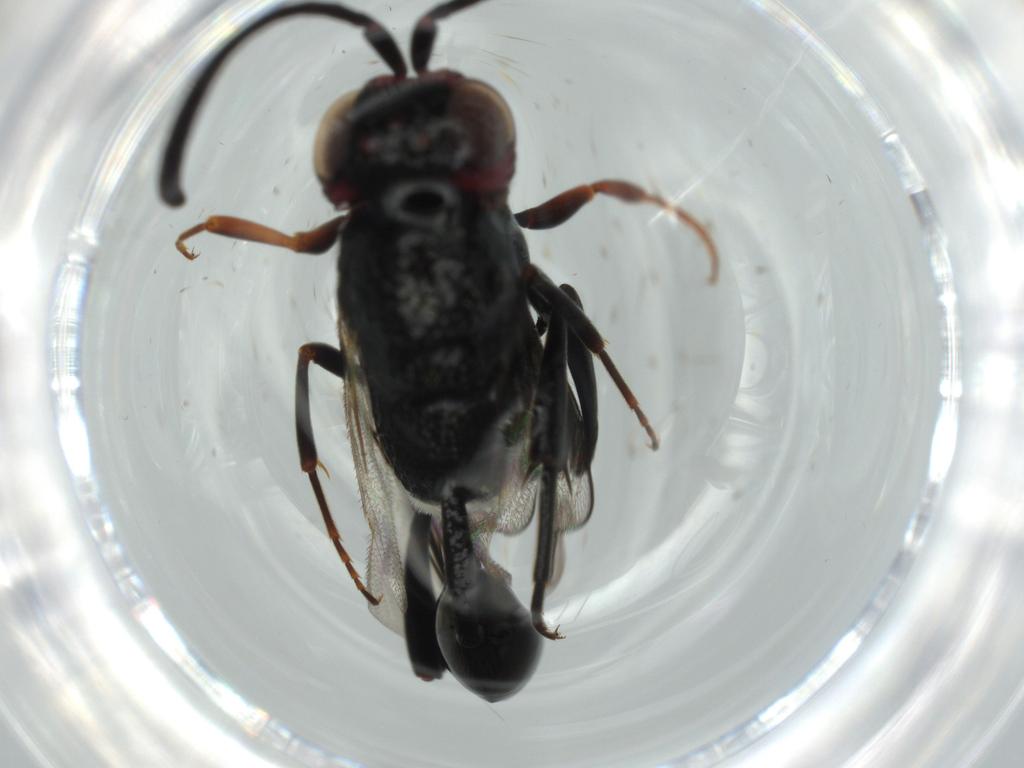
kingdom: Animalia
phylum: Arthropoda
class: Insecta
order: Hymenoptera
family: Evaniidae
